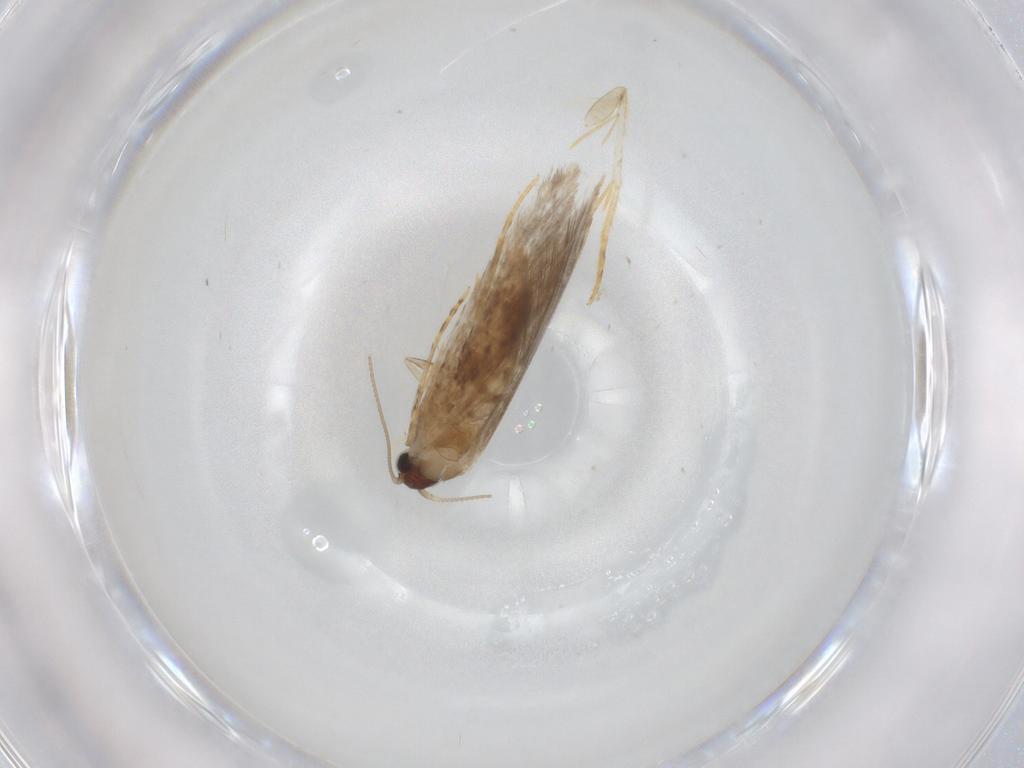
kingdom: Animalia
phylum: Arthropoda
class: Insecta
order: Lepidoptera
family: Tineidae
